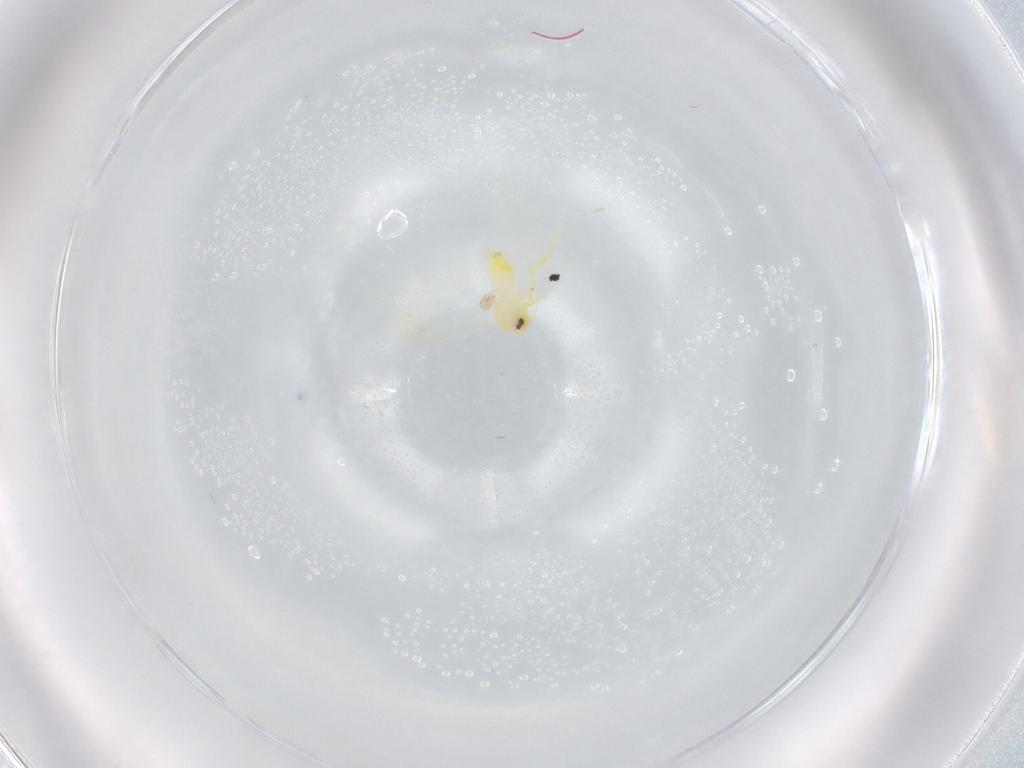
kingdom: Animalia
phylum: Arthropoda
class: Insecta
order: Hemiptera
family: Aleyrodidae
